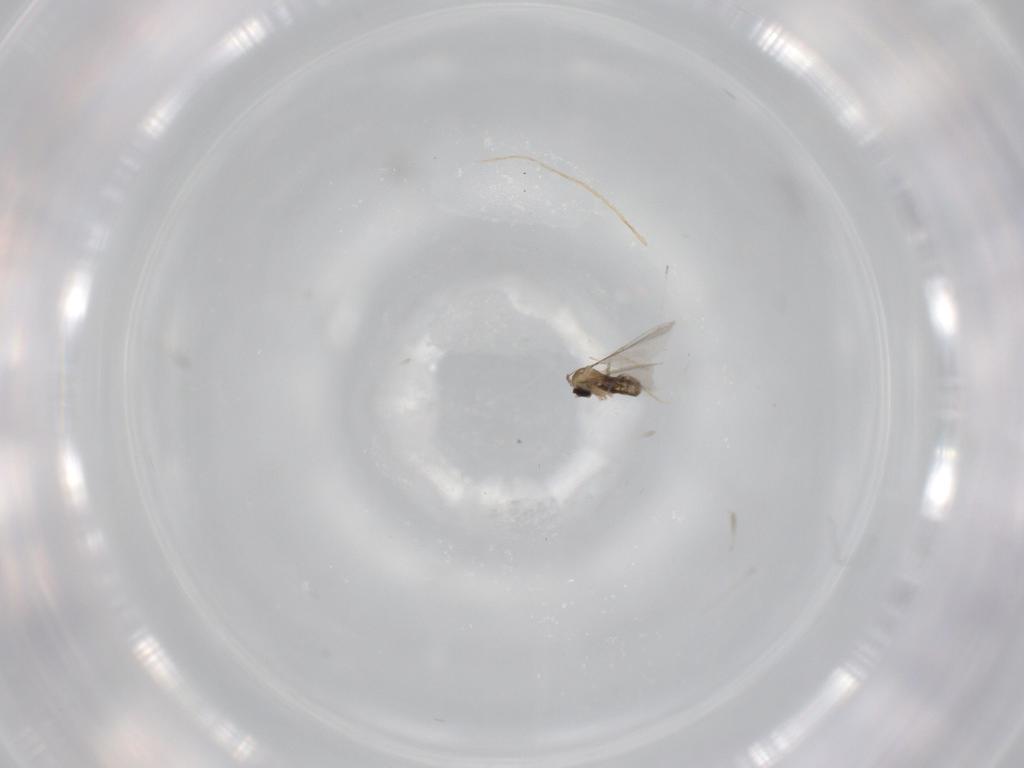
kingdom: Animalia
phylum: Arthropoda
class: Insecta
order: Diptera
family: Cecidomyiidae
